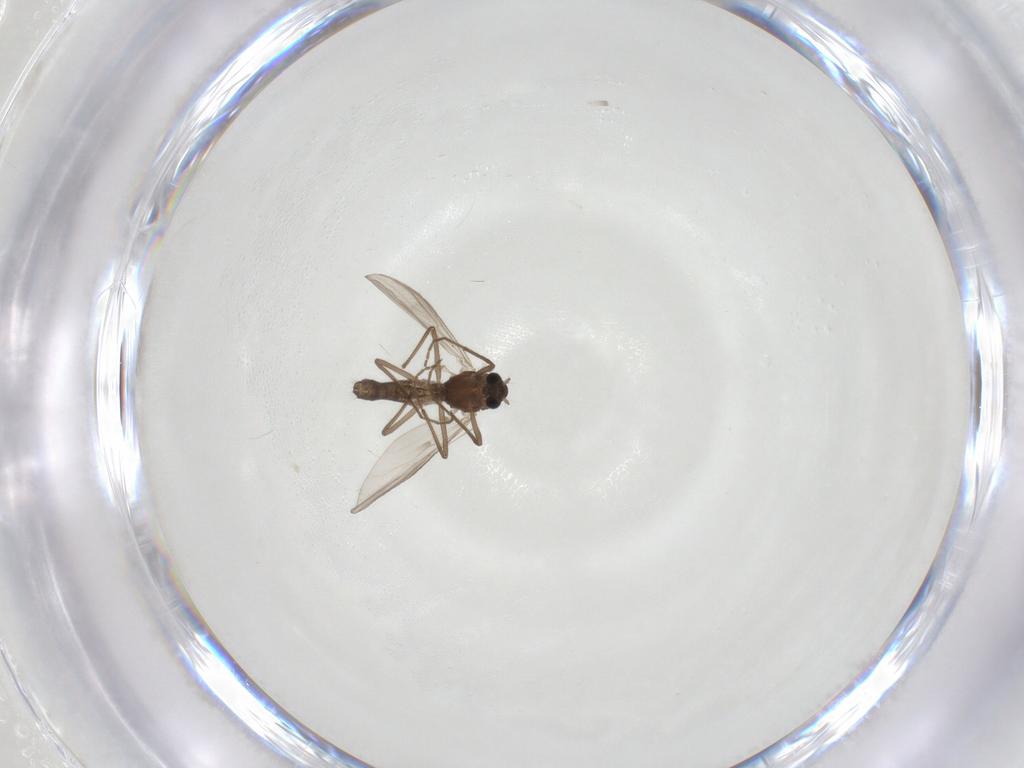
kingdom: Animalia
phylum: Arthropoda
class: Insecta
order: Diptera
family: Chironomidae
